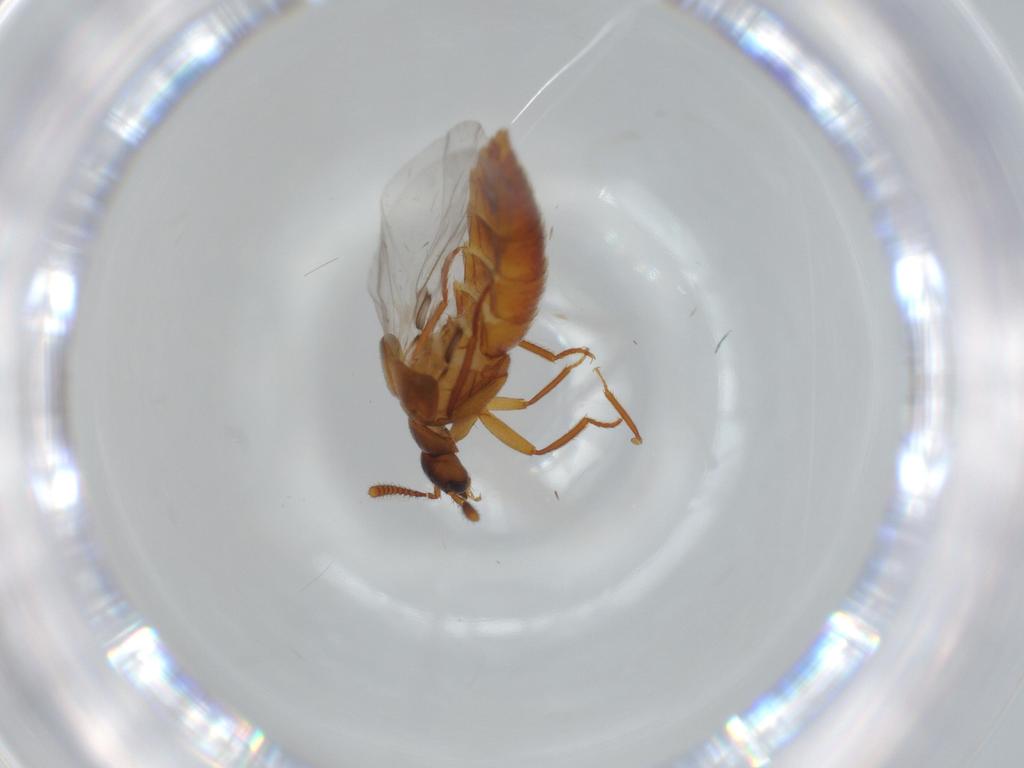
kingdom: Animalia
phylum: Arthropoda
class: Insecta
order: Coleoptera
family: Staphylinidae
